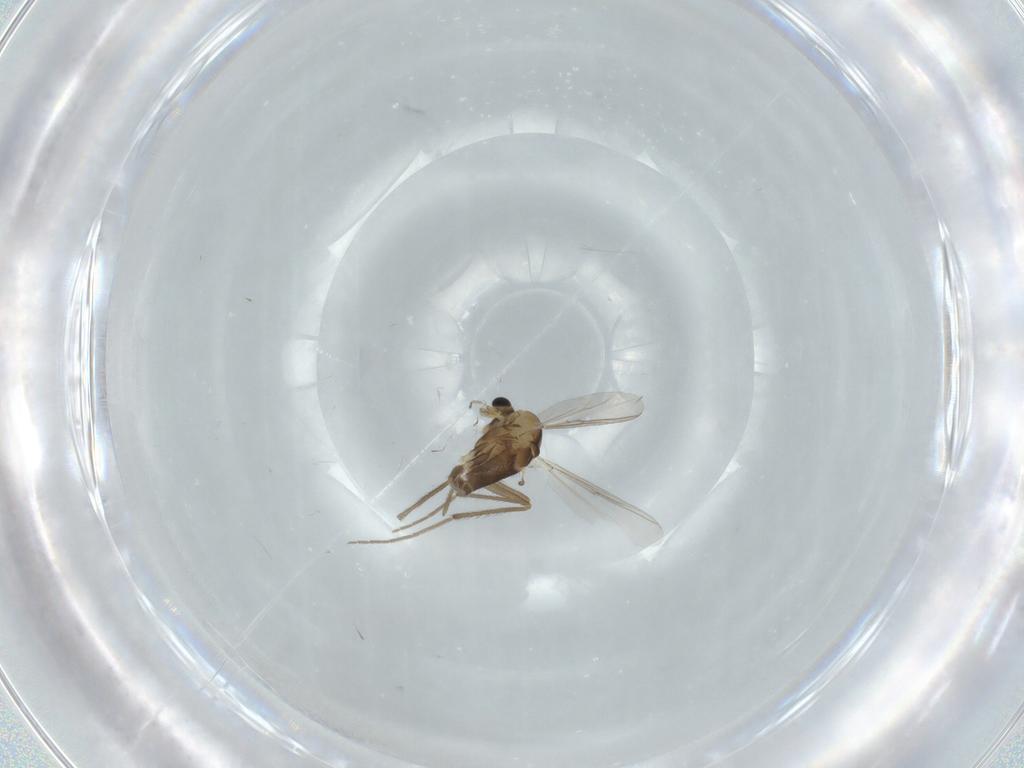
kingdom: Animalia
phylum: Arthropoda
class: Insecta
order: Diptera
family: Chironomidae
